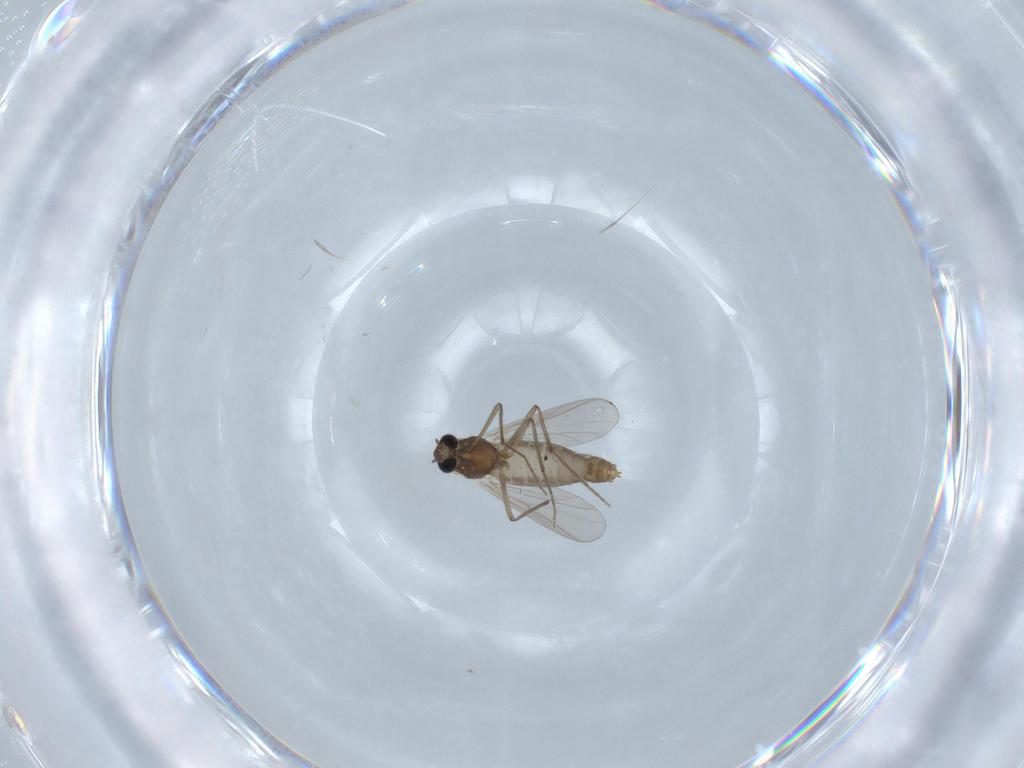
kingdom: Animalia
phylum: Arthropoda
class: Insecta
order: Diptera
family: Chironomidae
